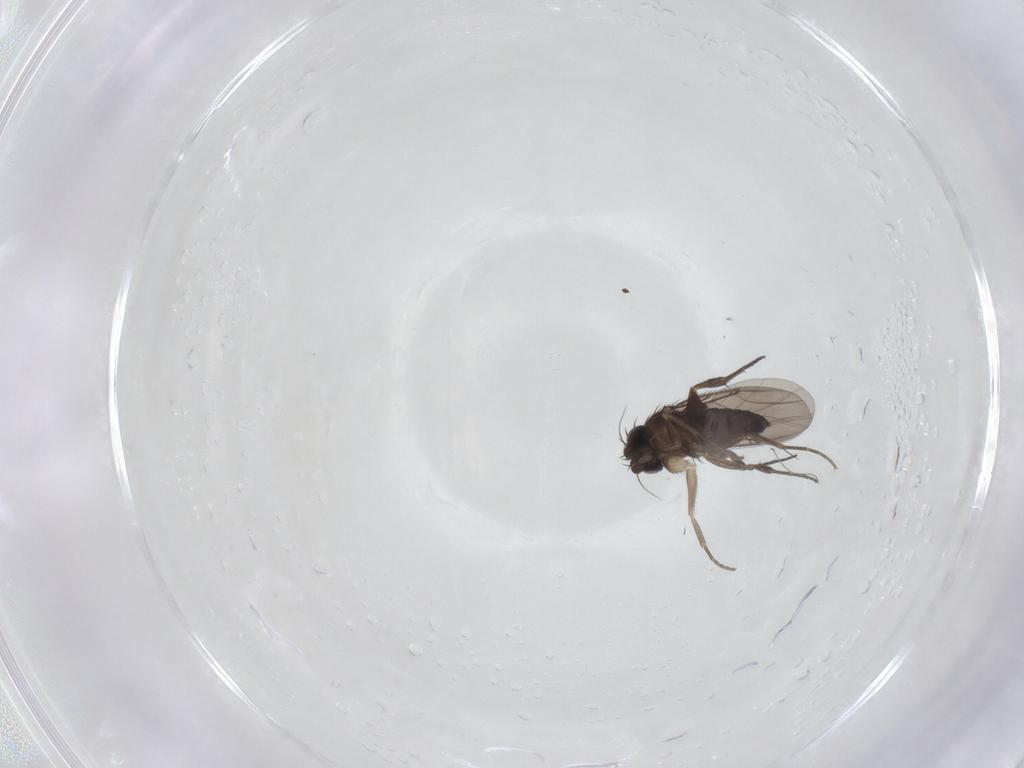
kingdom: Animalia
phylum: Arthropoda
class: Insecta
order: Diptera
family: Phoridae
